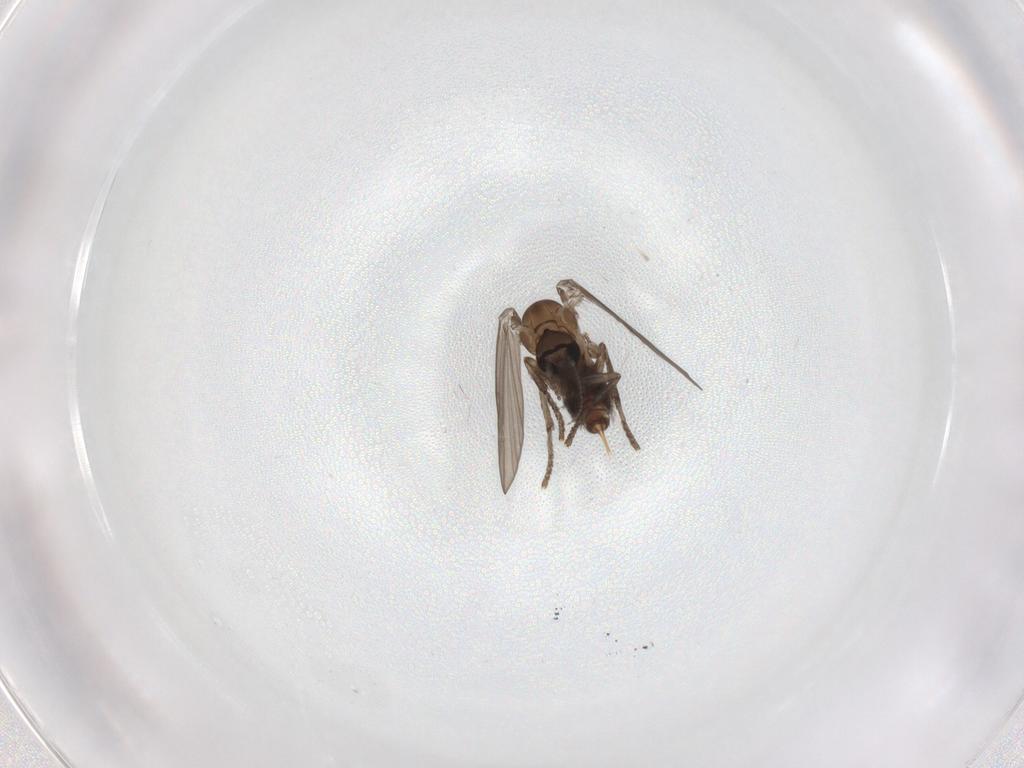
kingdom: Animalia
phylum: Arthropoda
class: Insecta
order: Diptera
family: Psychodidae
